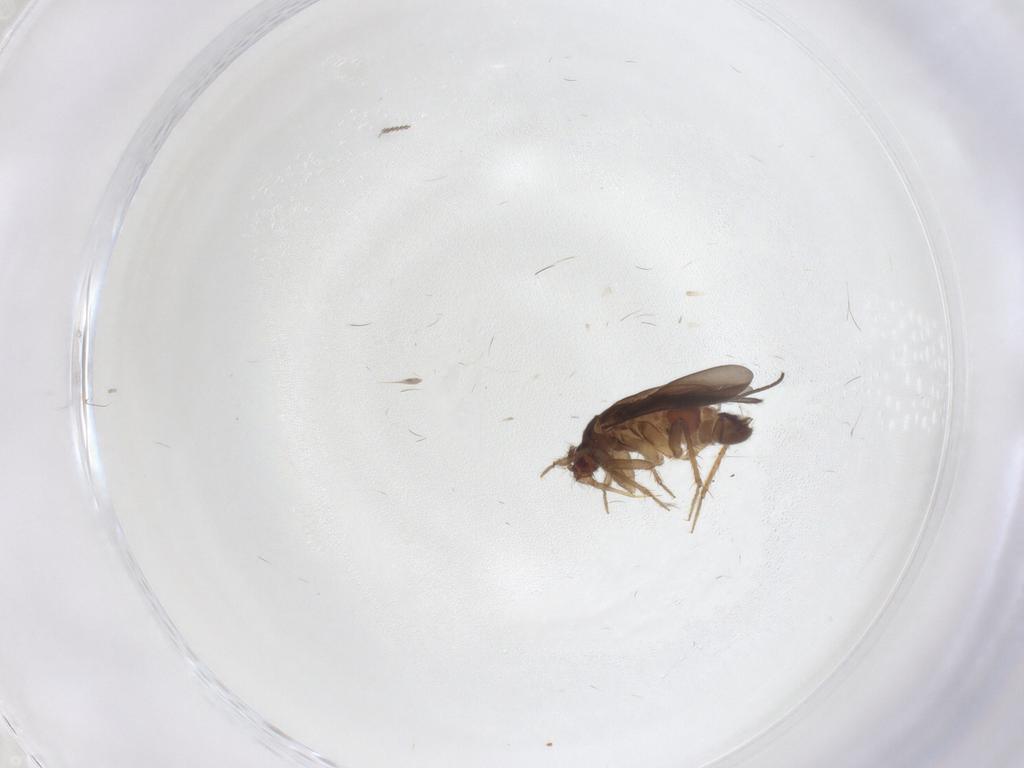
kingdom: Animalia
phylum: Arthropoda
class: Insecta
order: Hemiptera
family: Ceratocombidae
